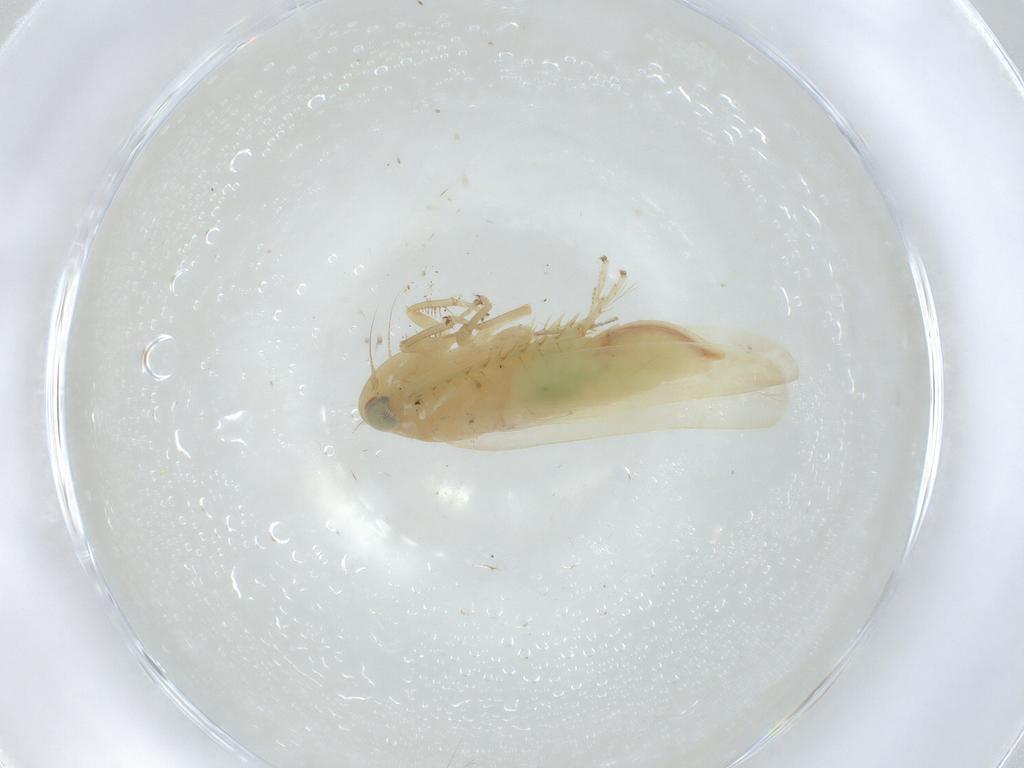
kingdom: Animalia
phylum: Arthropoda
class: Insecta
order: Hemiptera
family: Cicadellidae
